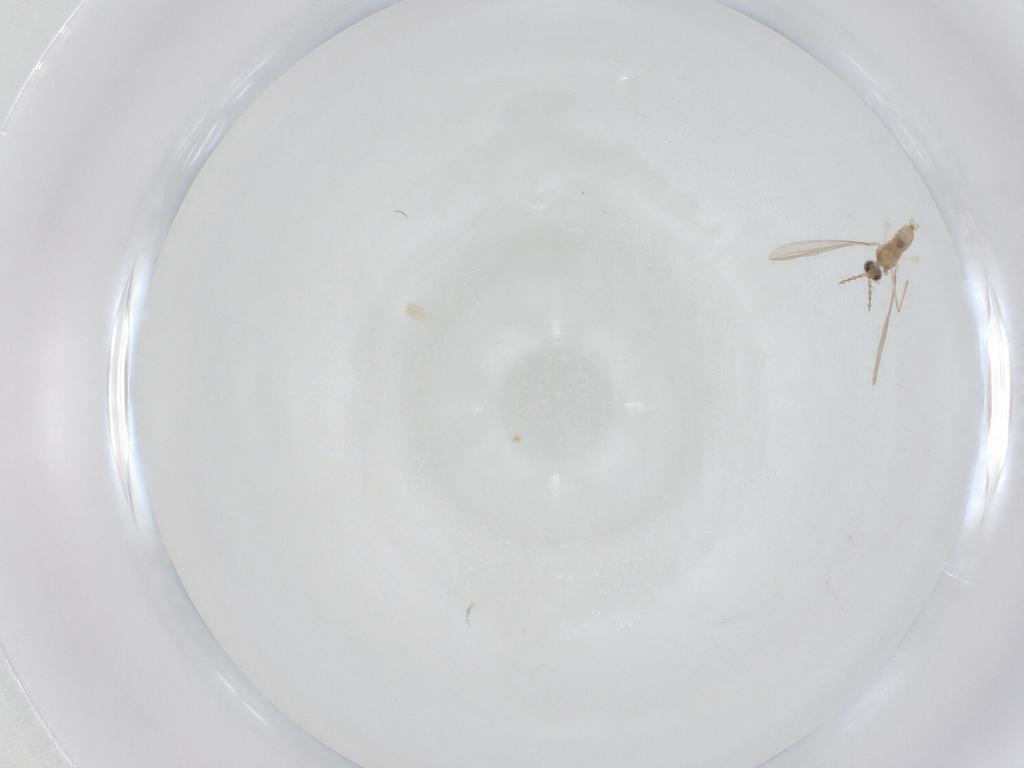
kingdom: Animalia
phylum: Arthropoda
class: Insecta
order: Diptera
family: Cecidomyiidae
